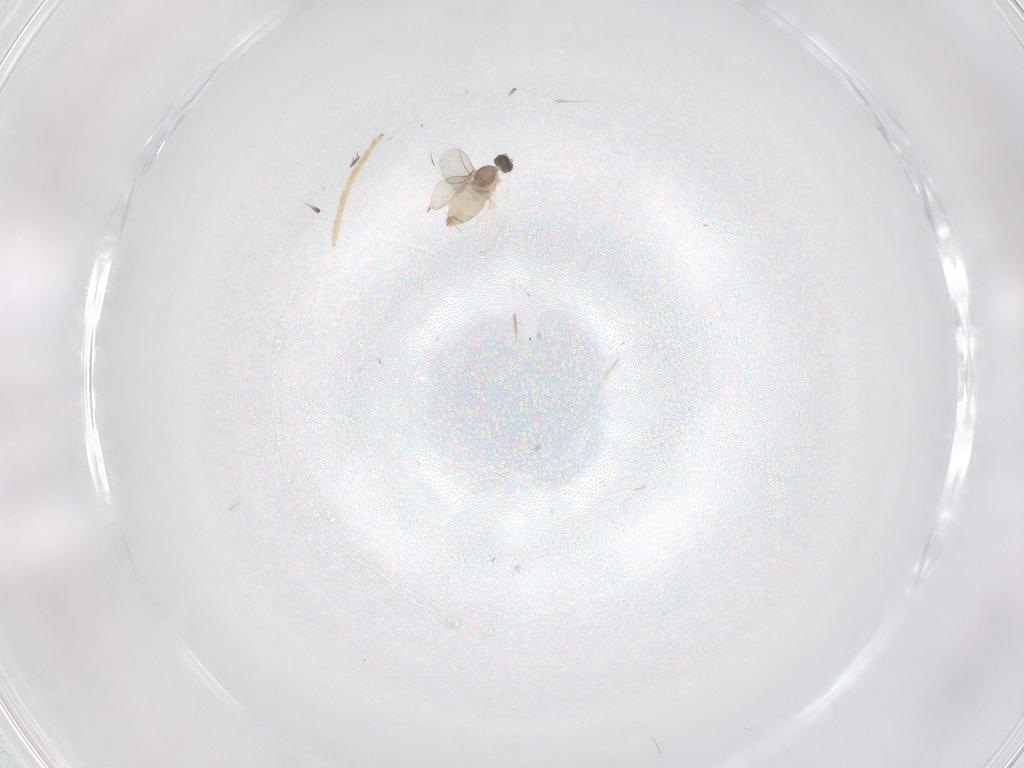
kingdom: Animalia
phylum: Arthropoda
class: Insecta
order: Diptera
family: Cecidomyiidae
